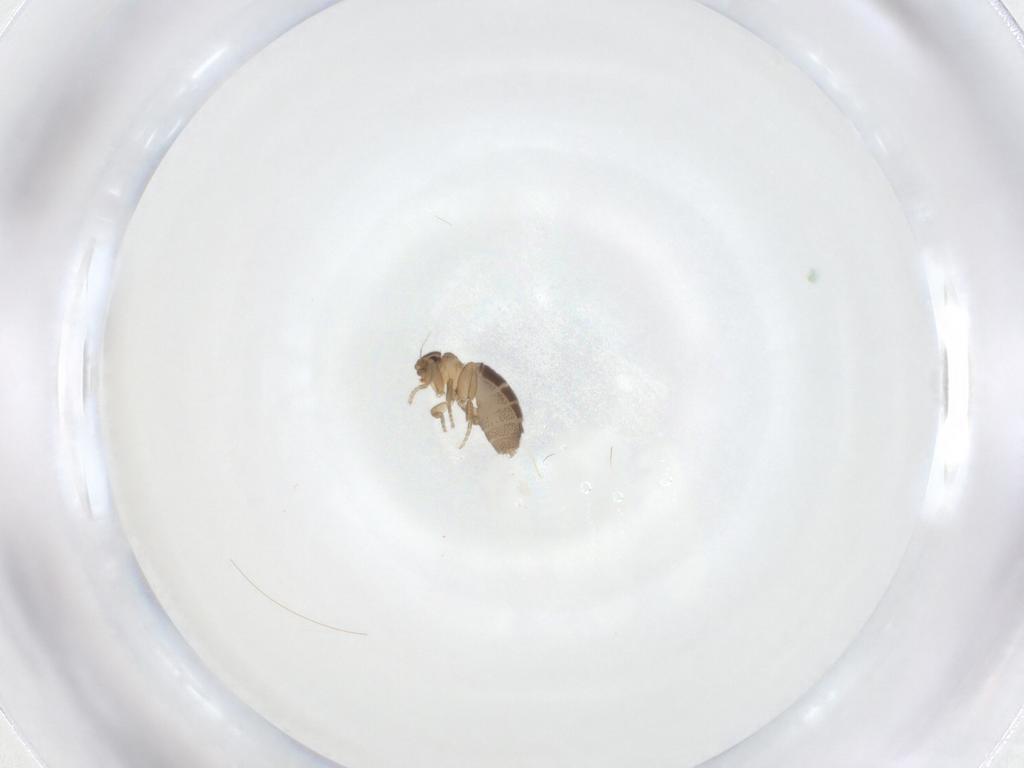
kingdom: Animalia
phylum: Arthropoda
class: Insecta
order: Diptera
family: Phoridae
